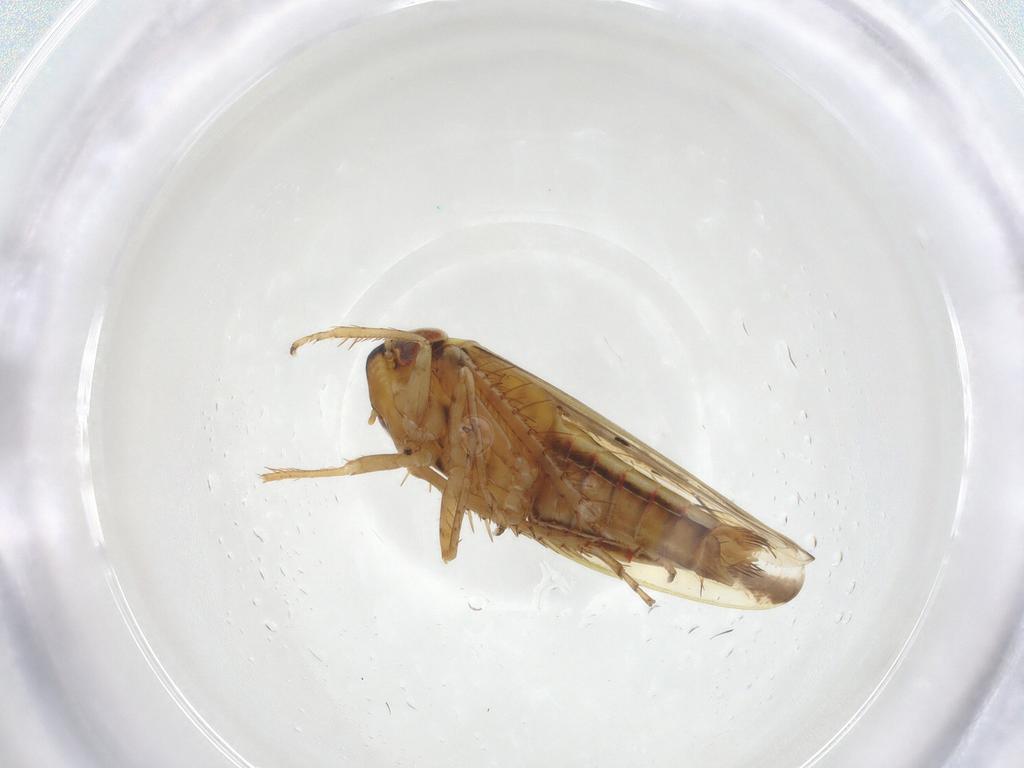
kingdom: Animalia
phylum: Arthropoda
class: Insecta
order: Hemiptera
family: Cicadellidae
